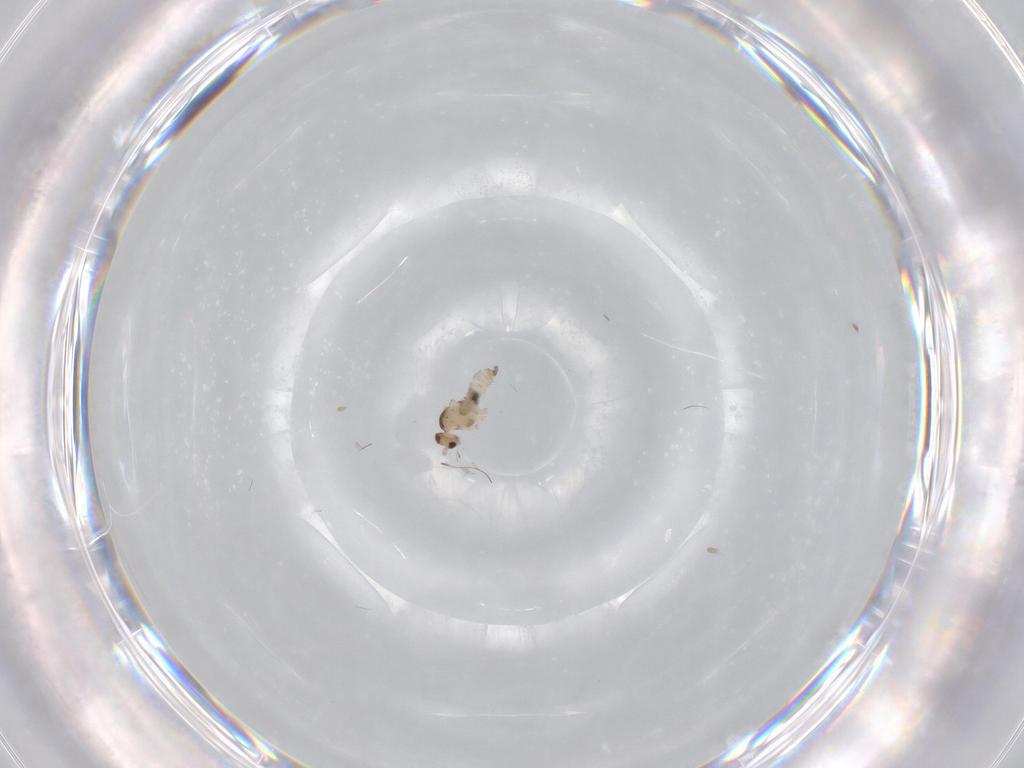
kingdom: Animalia
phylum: Arthropoda
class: Insecta
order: Diptera
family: Cecidomyiidae
